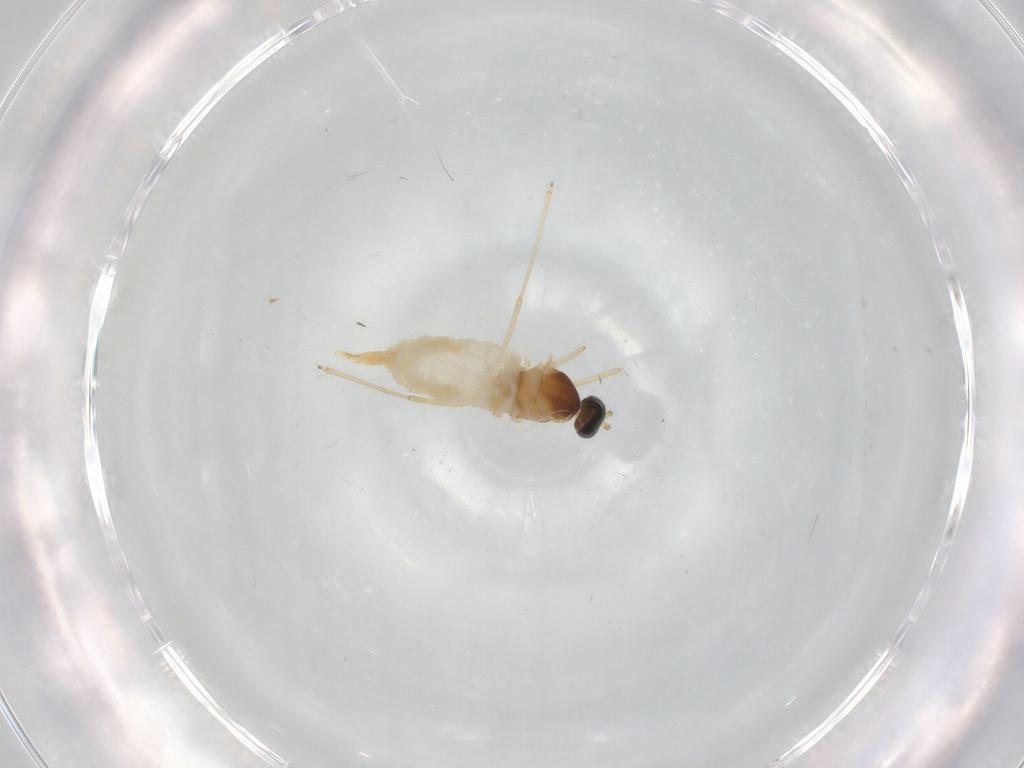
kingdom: Animalia
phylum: Arthropoda
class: Insecta
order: Diptera
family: Cecidomyiidae
